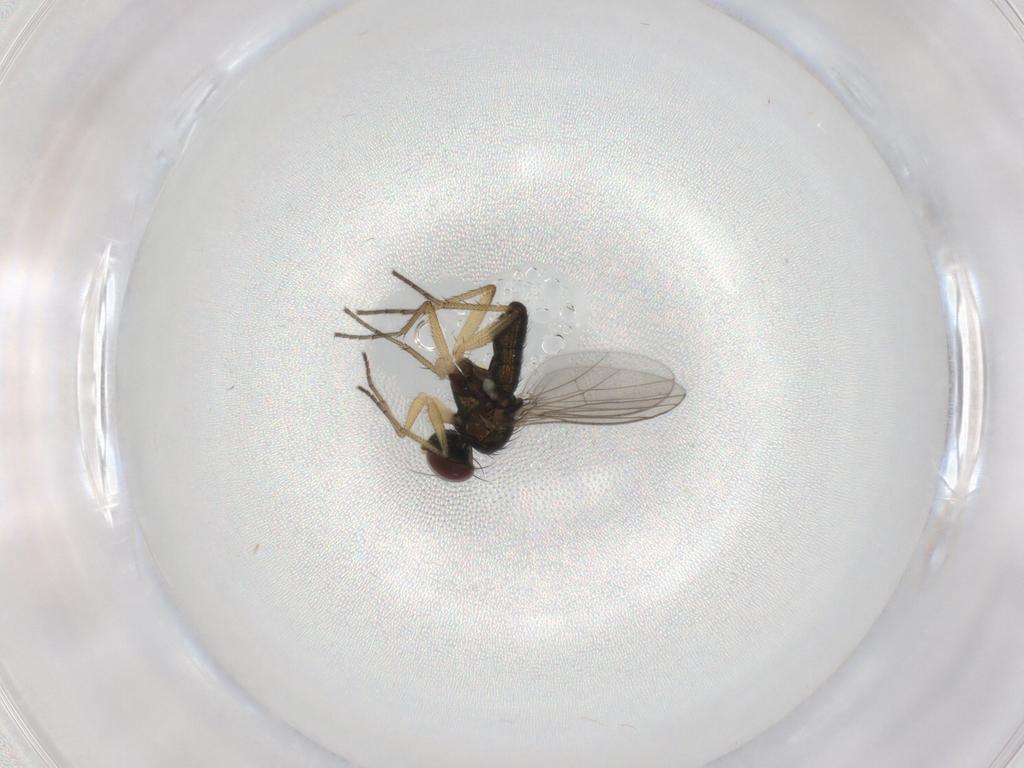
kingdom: Animalia
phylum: Arthropoda
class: Insecta
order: Diptera
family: Dolichopodidae
